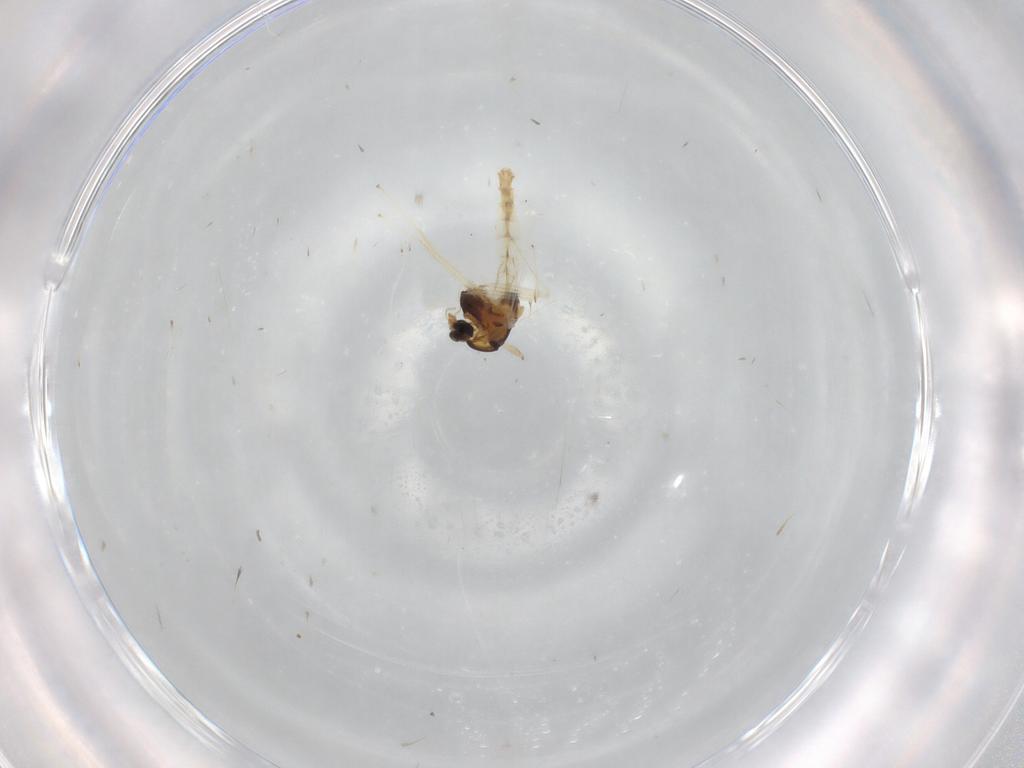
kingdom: Animalia
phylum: Arthropoda
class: Insecta
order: Diptera
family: Chironomidae
